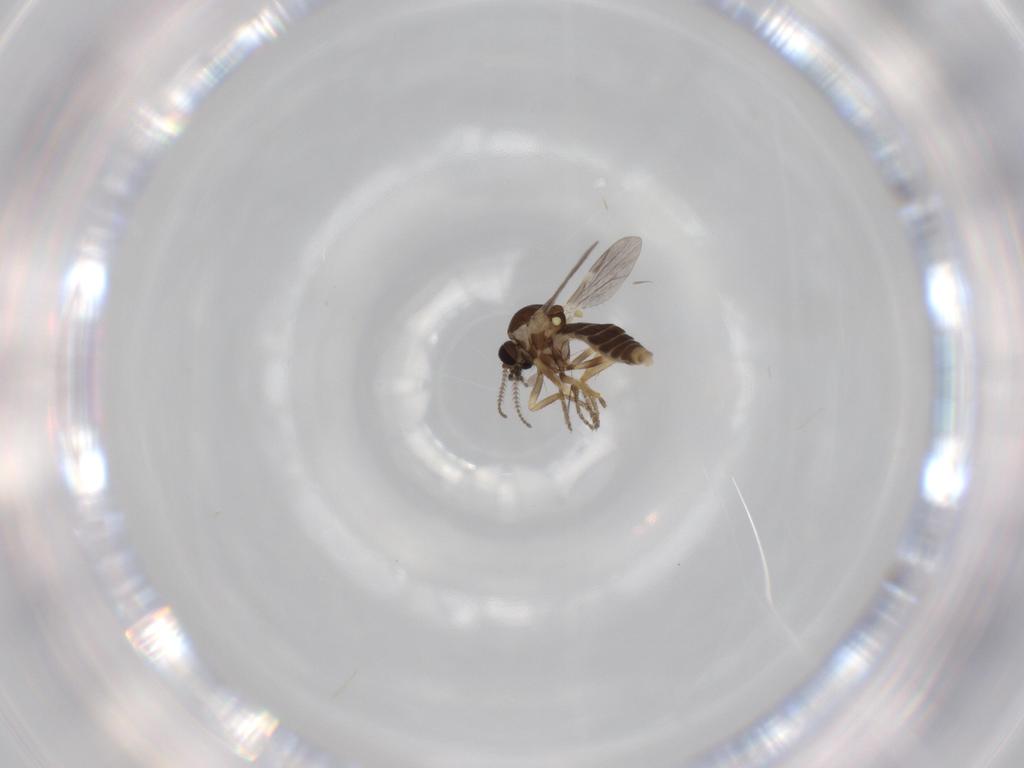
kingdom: Animalia
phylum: Arthropoda
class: Insecta
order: Diptera
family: Ceratopogonidae
